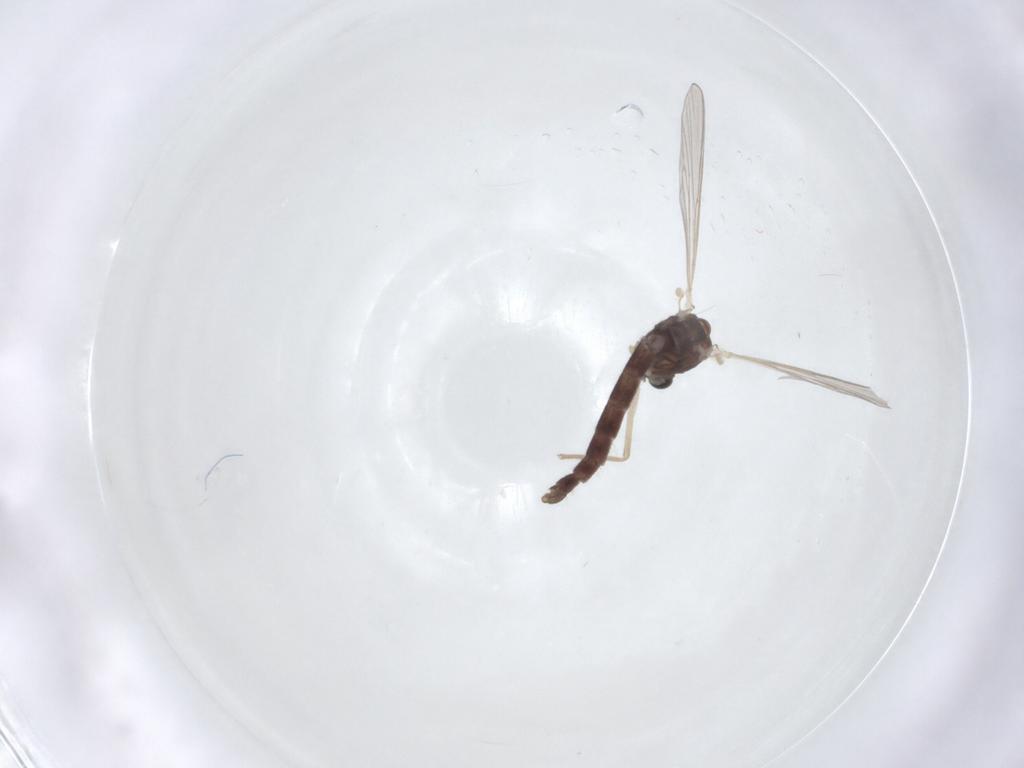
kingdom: Animalia
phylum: Arthropoda
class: Insecta
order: Diptera
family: Chironomidae
